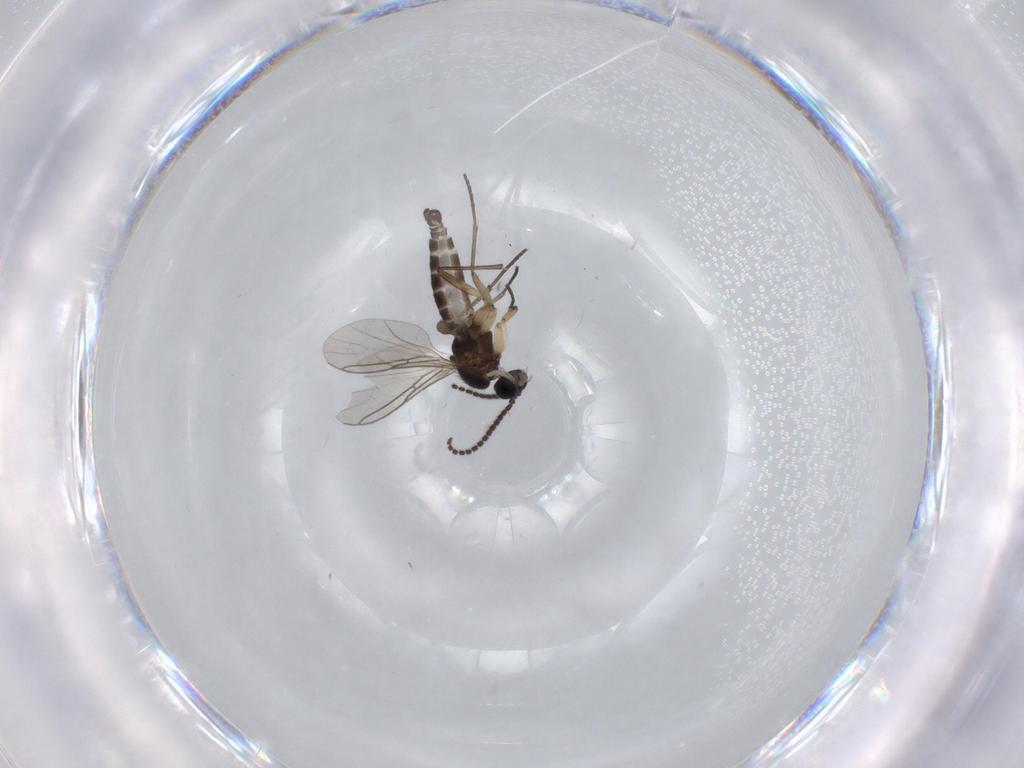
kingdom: Animalia
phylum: Arthropoda
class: Insecta
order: Diptera
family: Sciaridae
